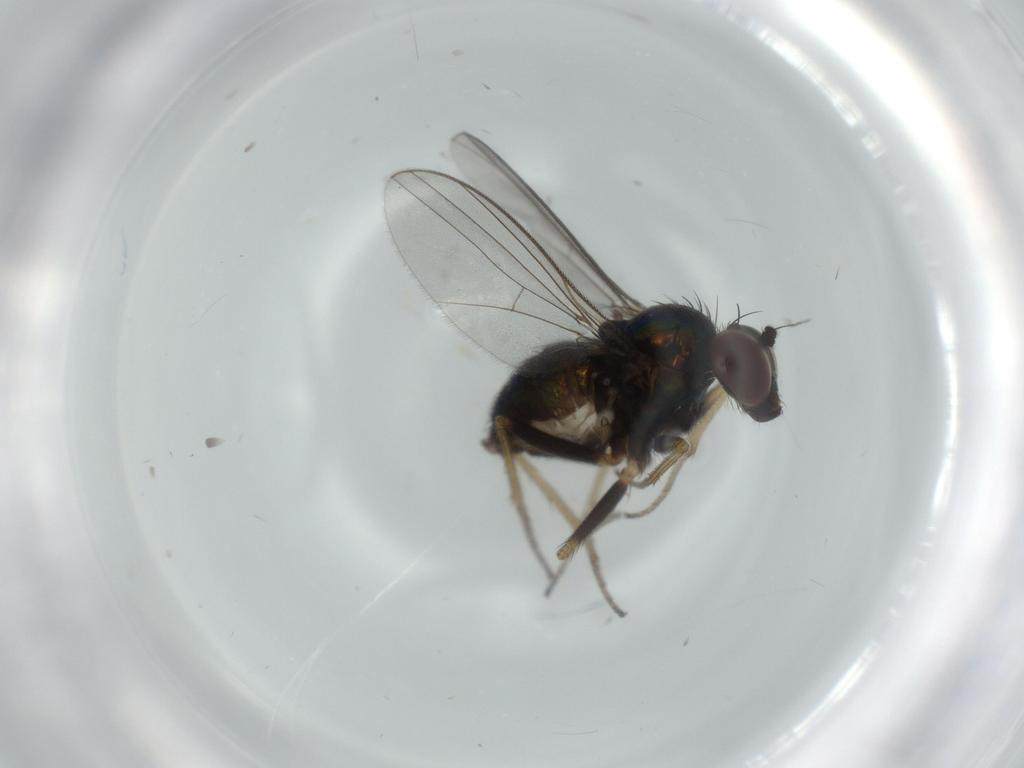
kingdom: Animalia
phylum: Arthropoda
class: Insecta
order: Diptera
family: Sciaridae
